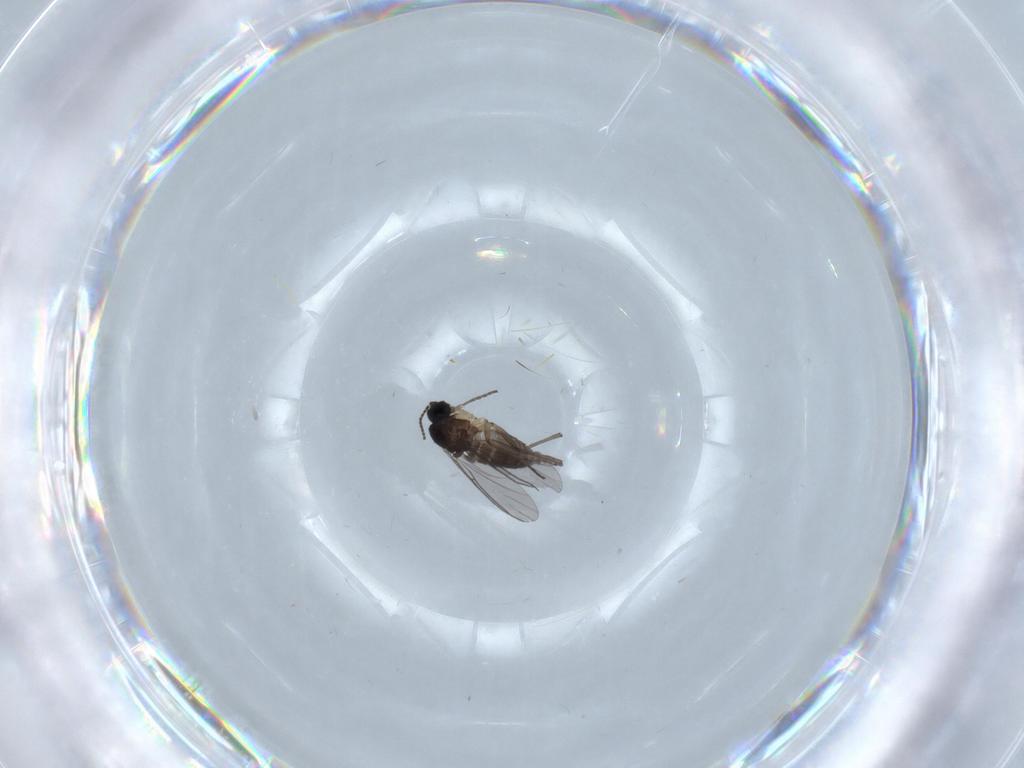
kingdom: Animalia
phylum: Arthropoda
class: Insecta
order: Diptera
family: Sciaridae
